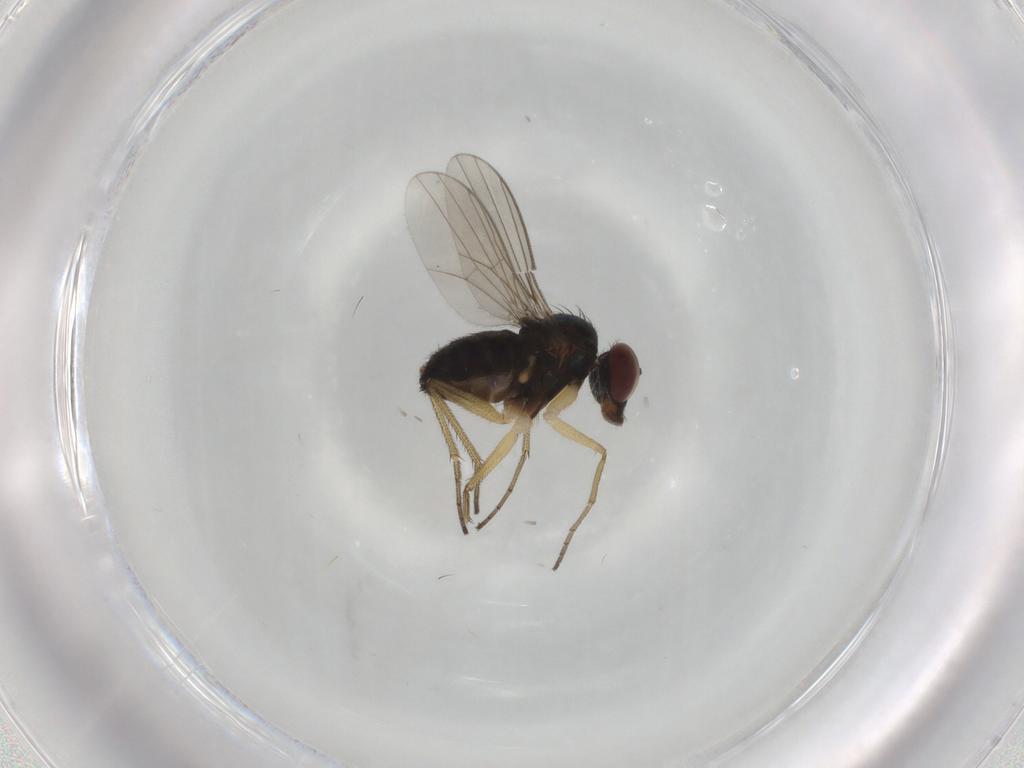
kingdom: Animalia
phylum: Arthropoda
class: Insecta
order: Diptera
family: Dolichopodidae
